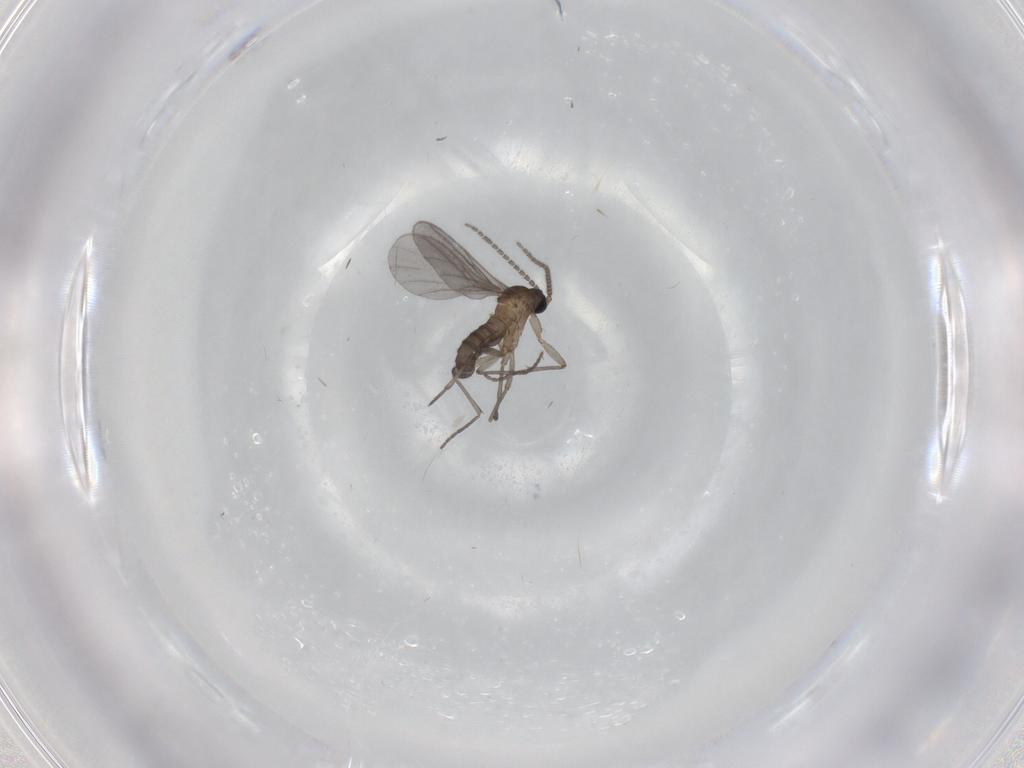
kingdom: Animalia
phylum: Arthropoda
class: Insecta
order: Diptera
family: Sciaridae
